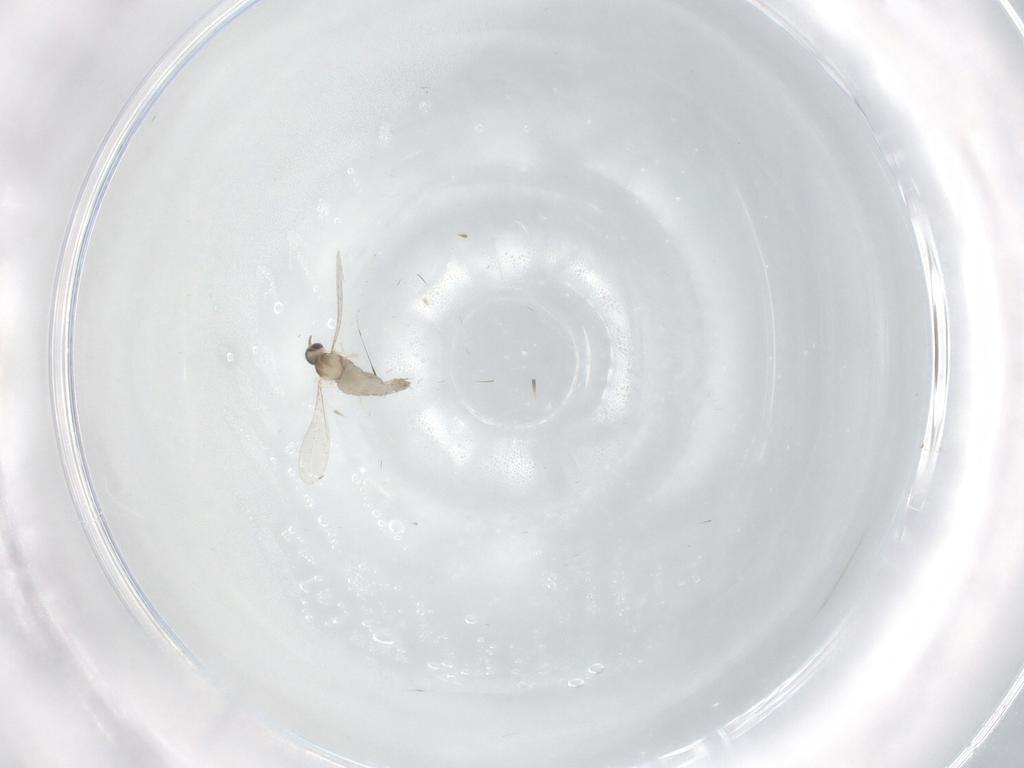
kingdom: Animalia
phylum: Arthropoda
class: Insecta
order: Diptera
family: Phoridae
